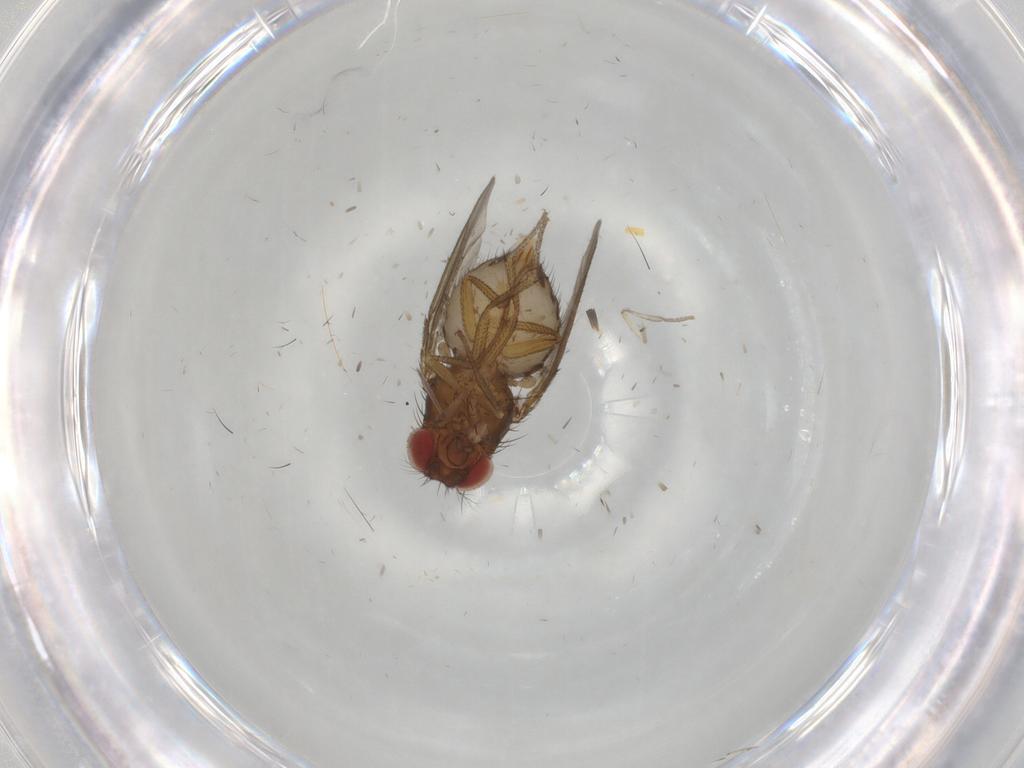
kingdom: Animalia
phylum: Arthropoda
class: Insecta
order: Diptera
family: Drosophilidae
